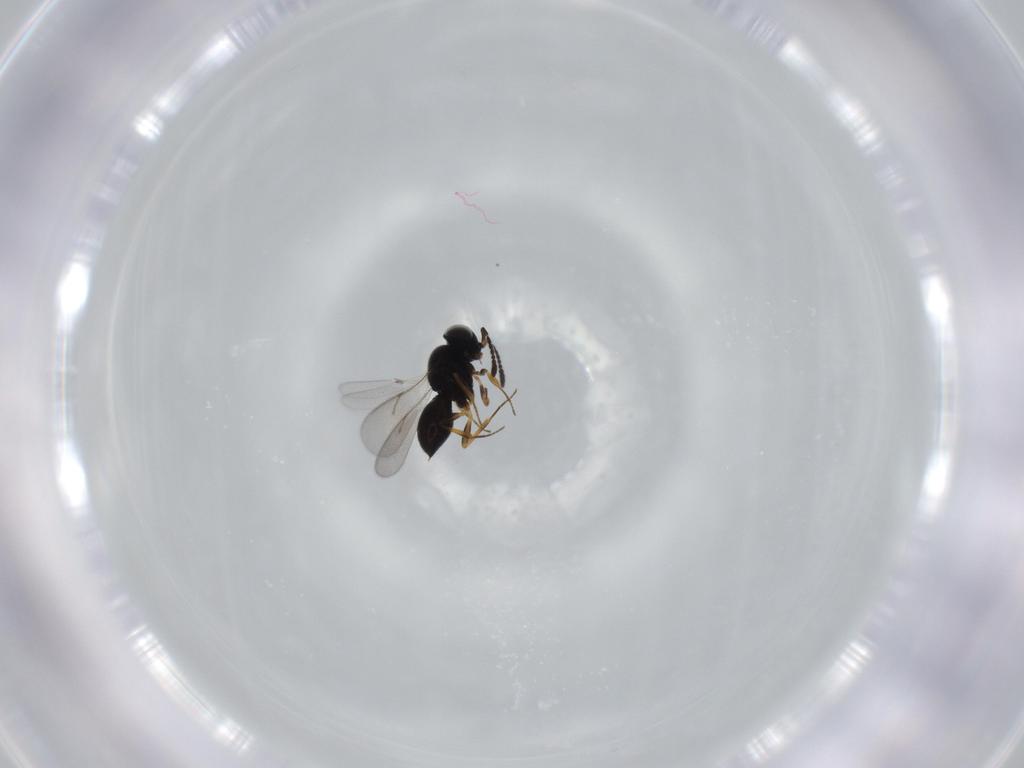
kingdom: Animalia
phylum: Arthropoda
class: Insecta
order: Hymenoptera
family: Scelionidae
